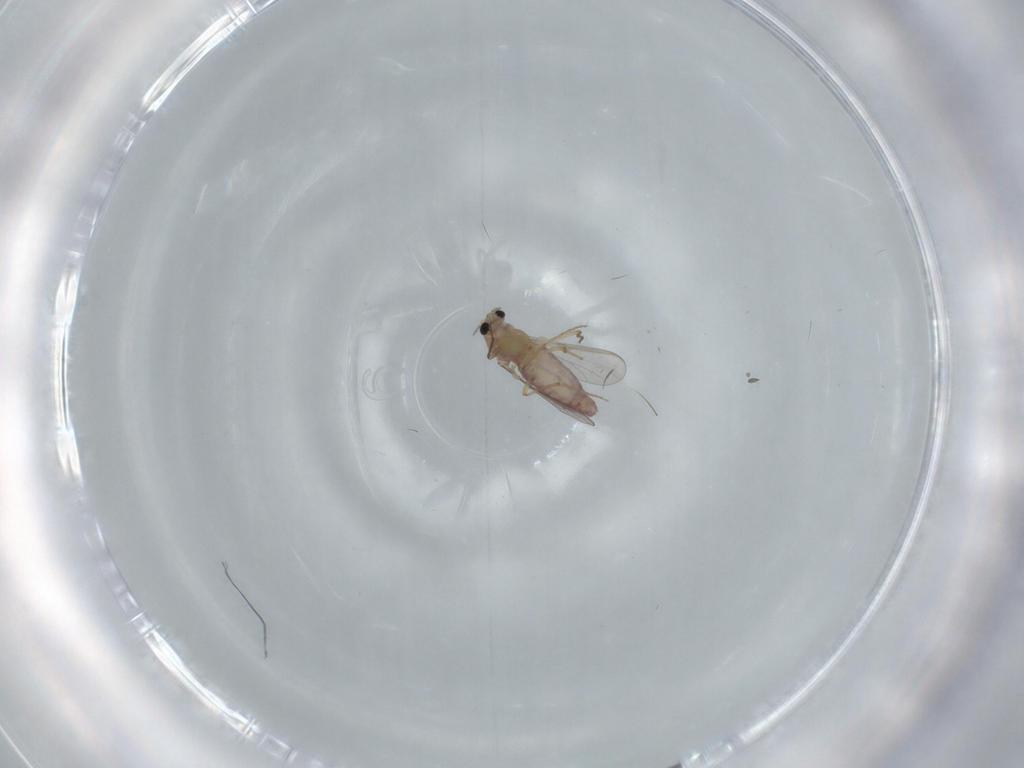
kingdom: Animalia
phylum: Arthropoda
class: Insecta
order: Diptera
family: Chironomidae
